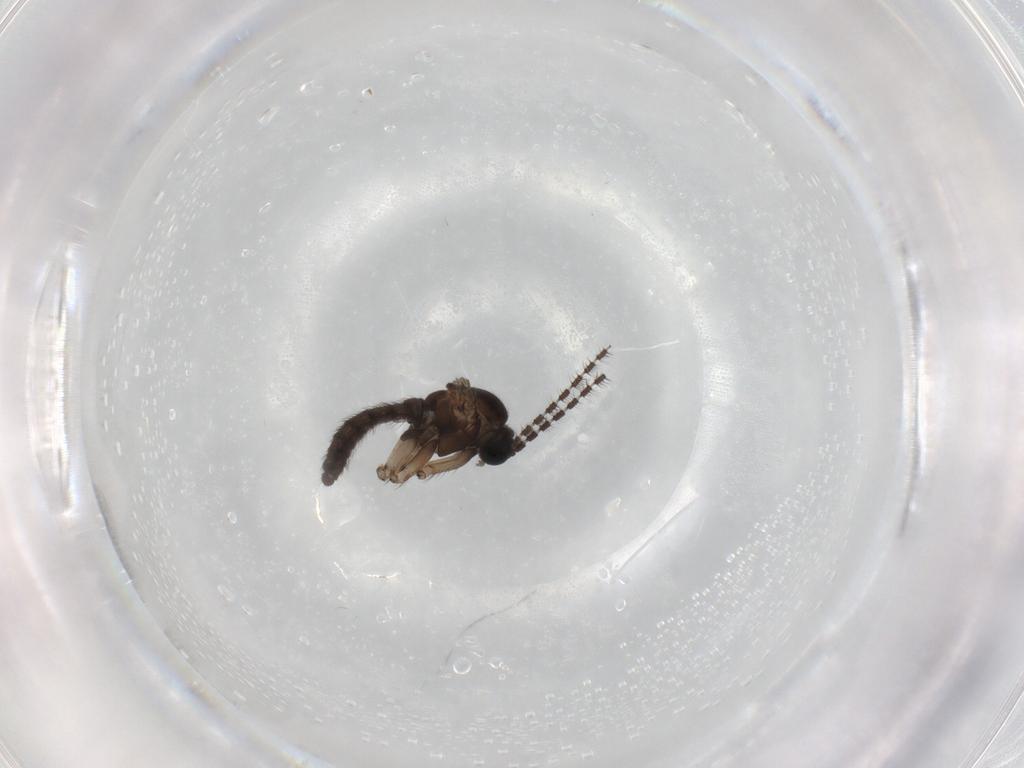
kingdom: Animalia
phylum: Arthropoda
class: Insecta
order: Diptera
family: Sciaridae
